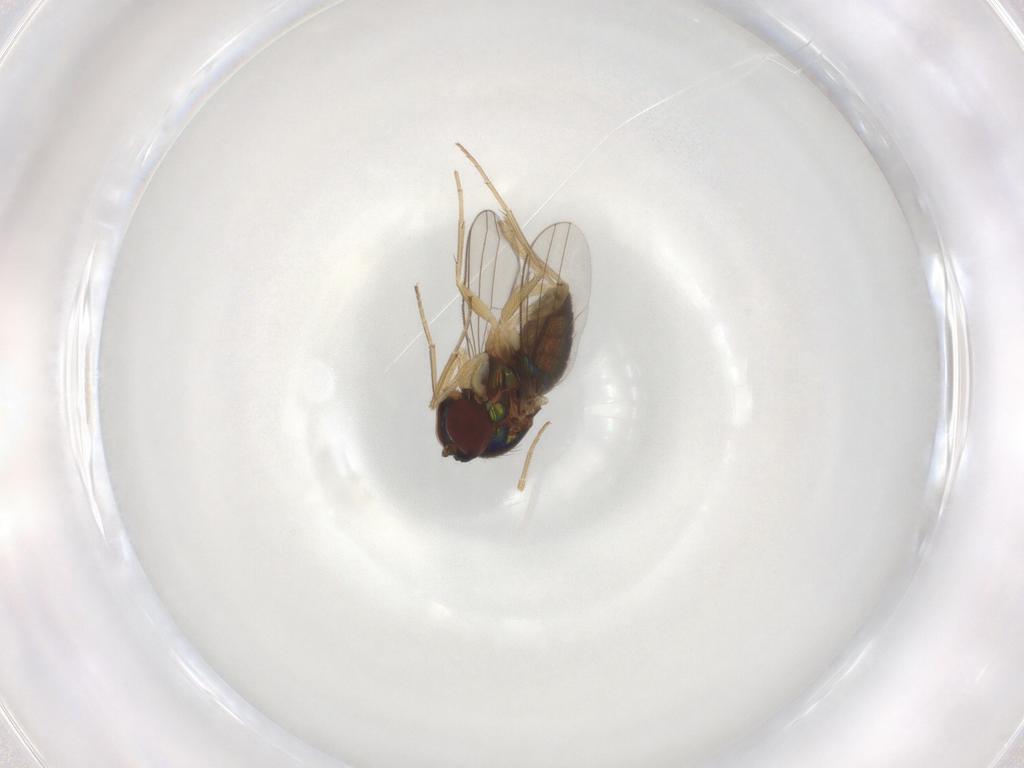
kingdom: Animalia
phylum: Arthropoda
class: Insecta
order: Diptera
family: Dolichopodidae
